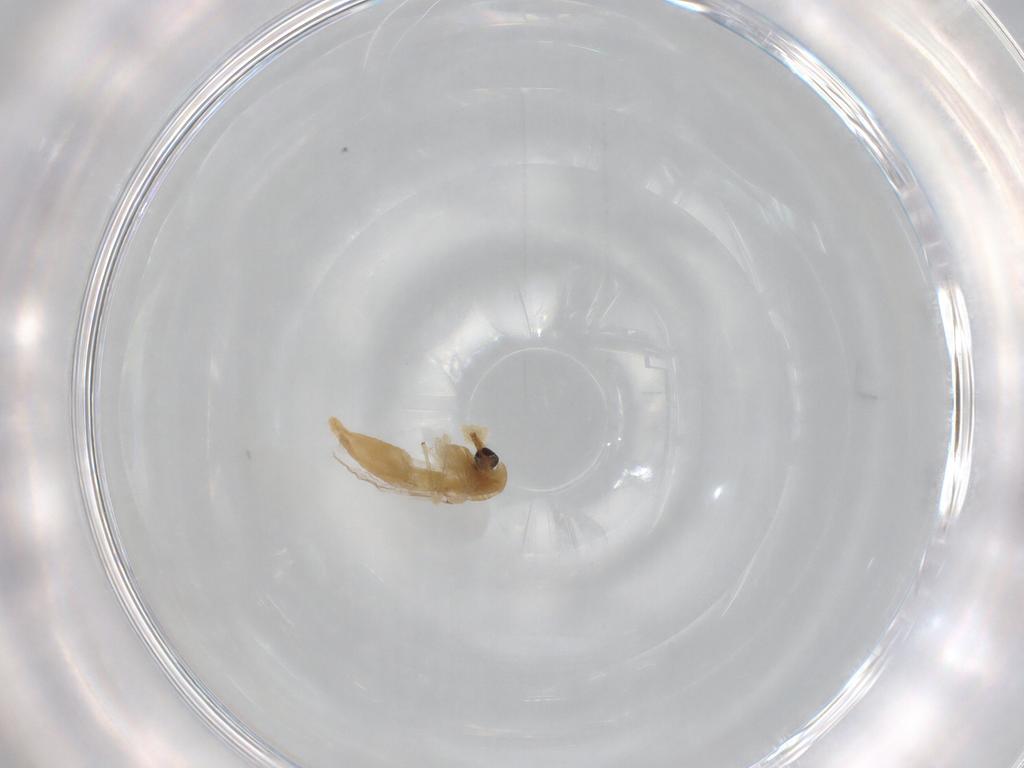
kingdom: Animalia
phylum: Arthropoda
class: Insecta
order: Diptera
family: Chironomidae
